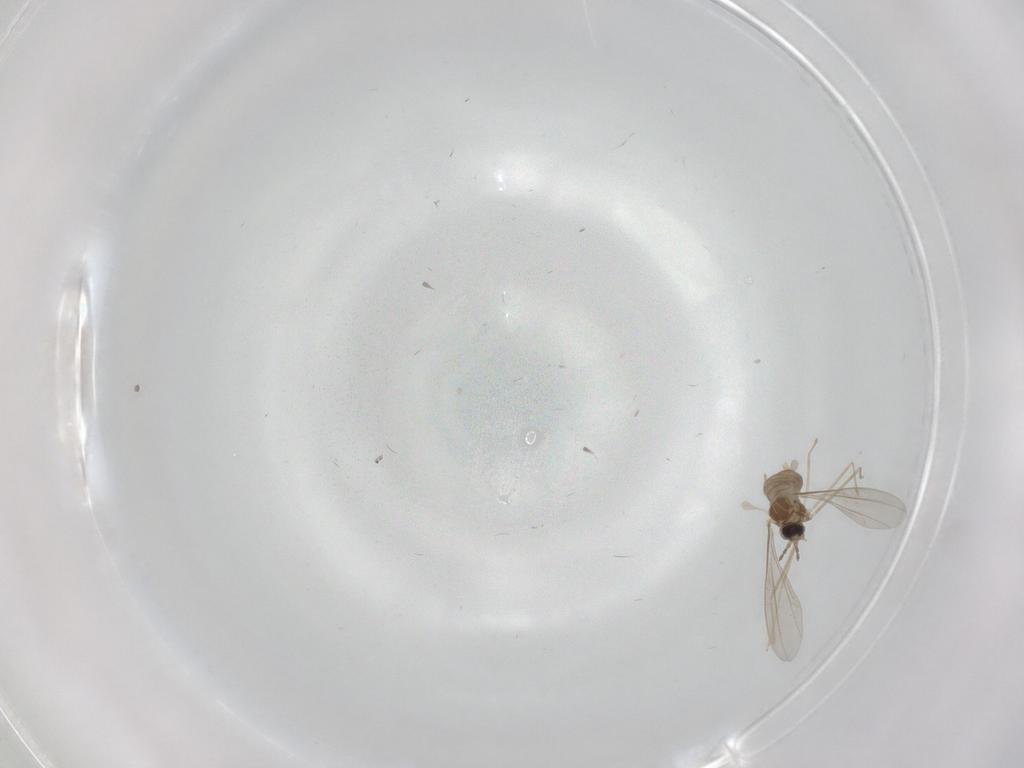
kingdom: Animalia
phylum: Arthropoda
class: Insecta
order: Diptera
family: Cecidomyiidae
